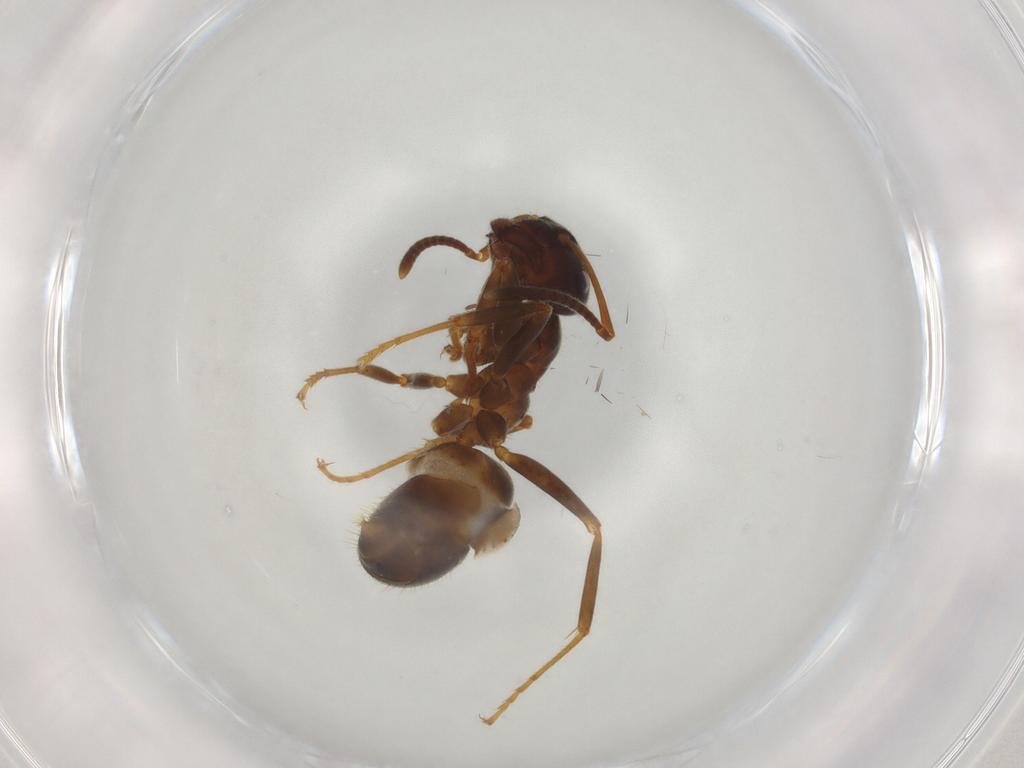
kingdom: Animalia
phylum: Arthropoda
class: Insecta
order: Hymenoptera
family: Formicidae
